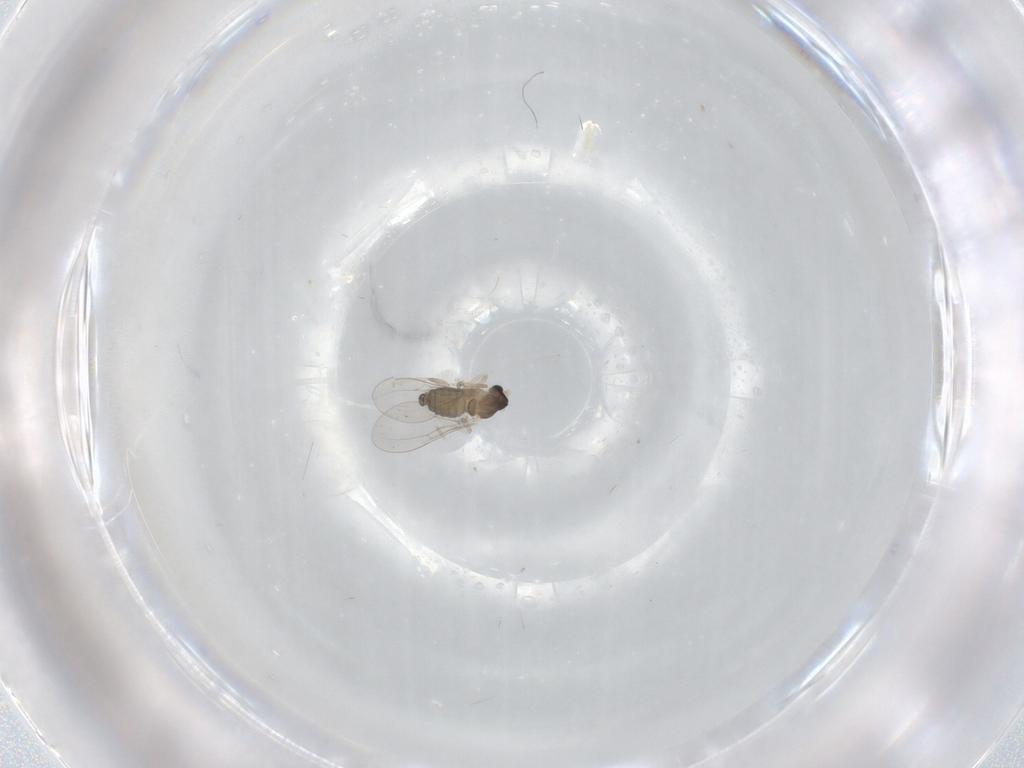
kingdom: Animalia
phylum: Arthropoda
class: Insecta
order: Diptera
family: Cecidomyiidae
